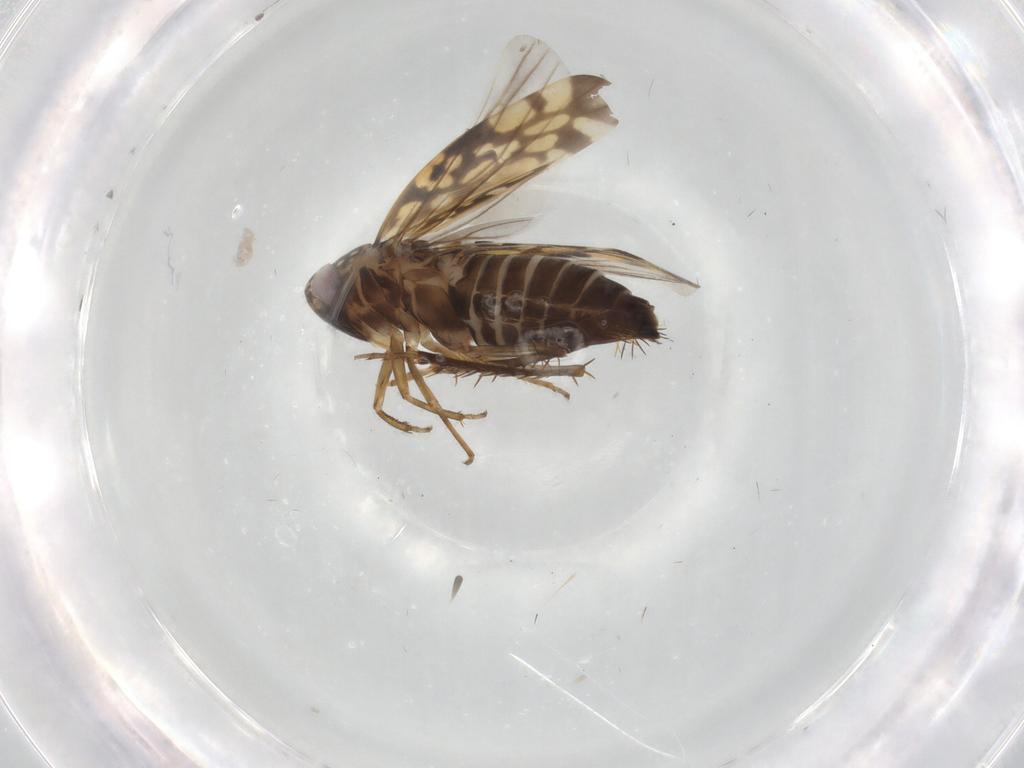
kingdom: Animalia
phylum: Arthropoda
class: Insecta
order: Hemiptera
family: Cicadellidae
